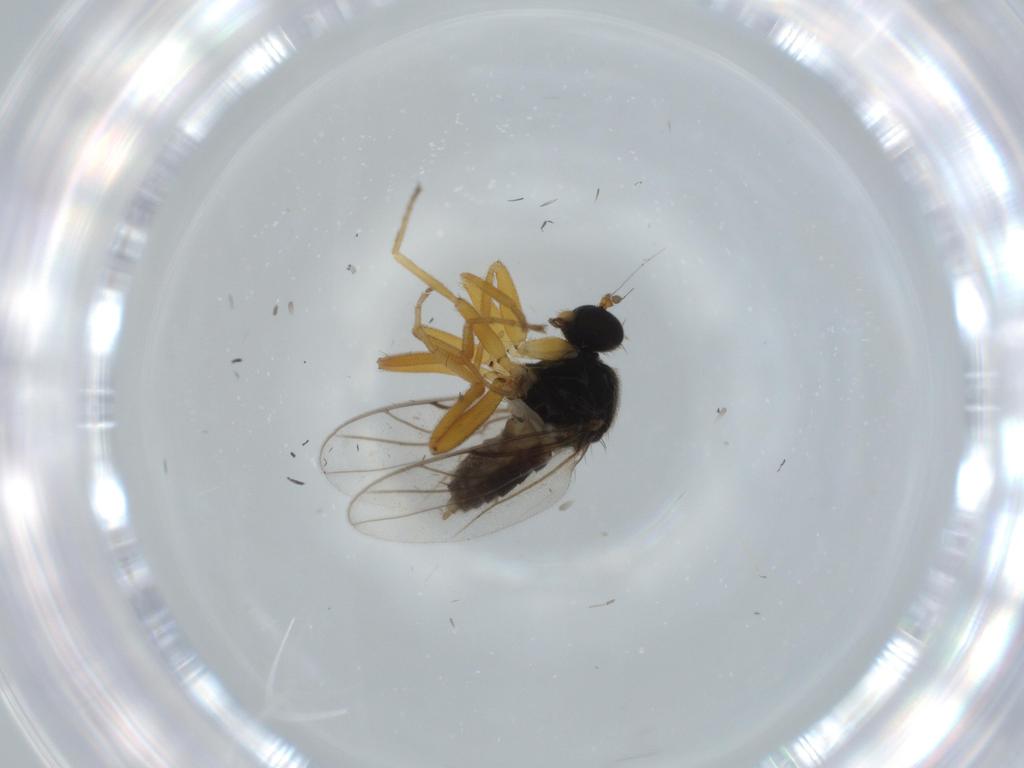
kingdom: Animalia
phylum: Arthropoda
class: Insecta
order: Diptera
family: Hybotidae
